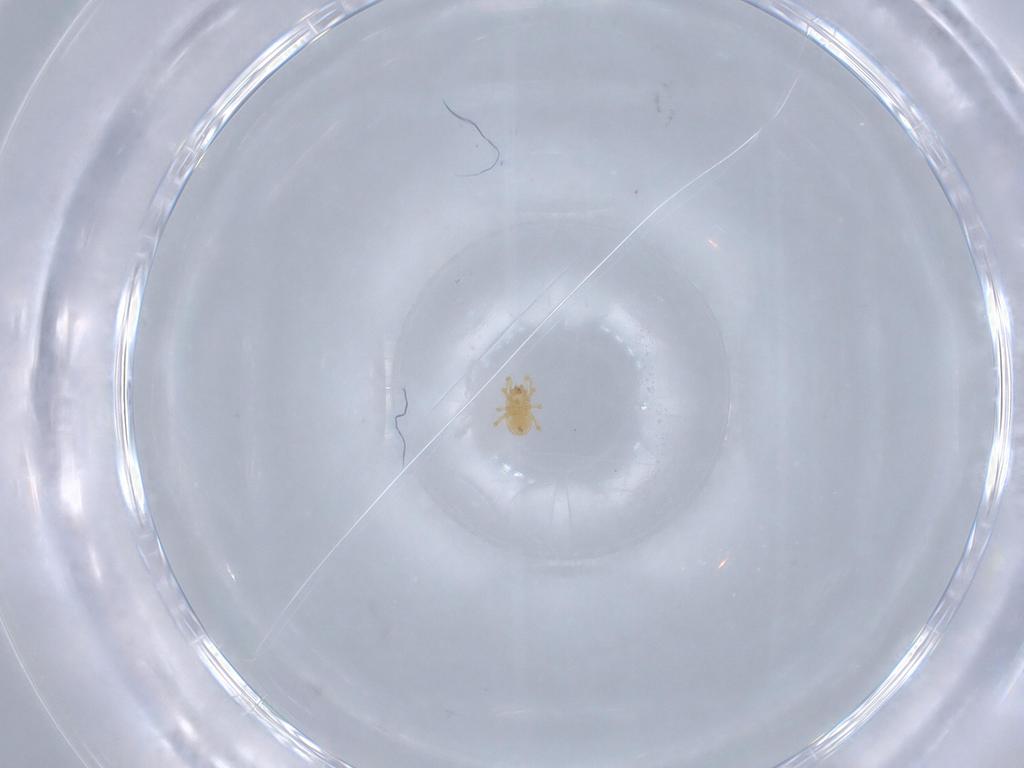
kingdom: Animalia
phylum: Arthropoda
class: Arachnida
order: Mesostigmata
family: Blattisociidae
